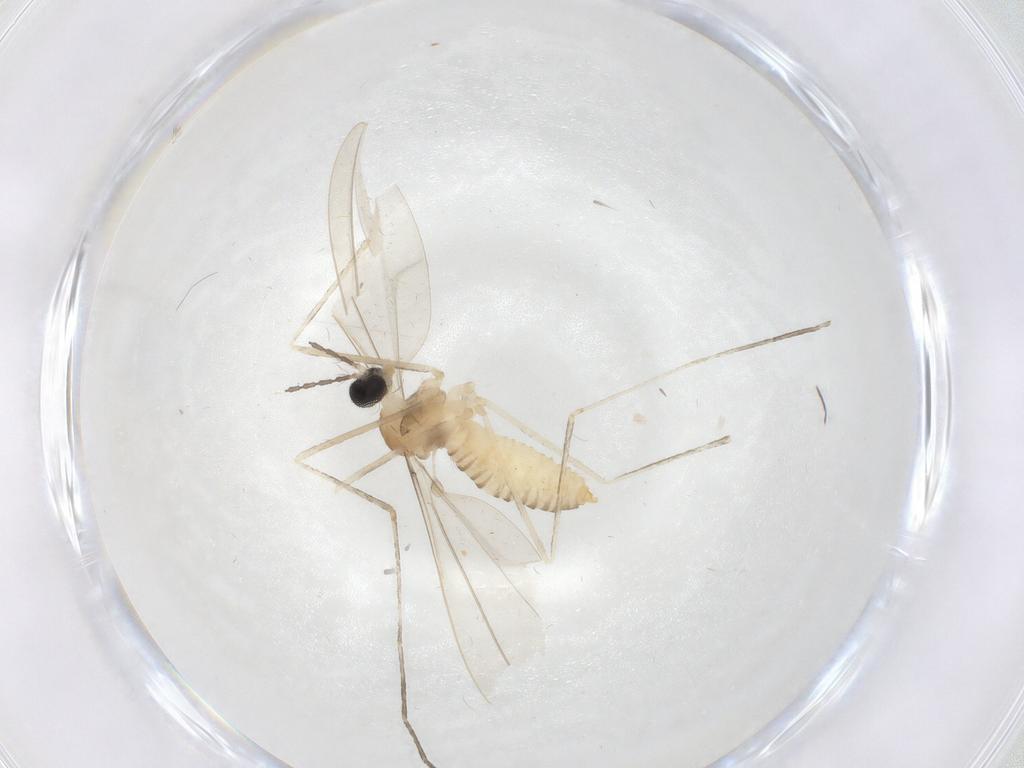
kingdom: Animalia
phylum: Arthropoda
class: Insecta
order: Diptera
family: Cecidomyiidae
